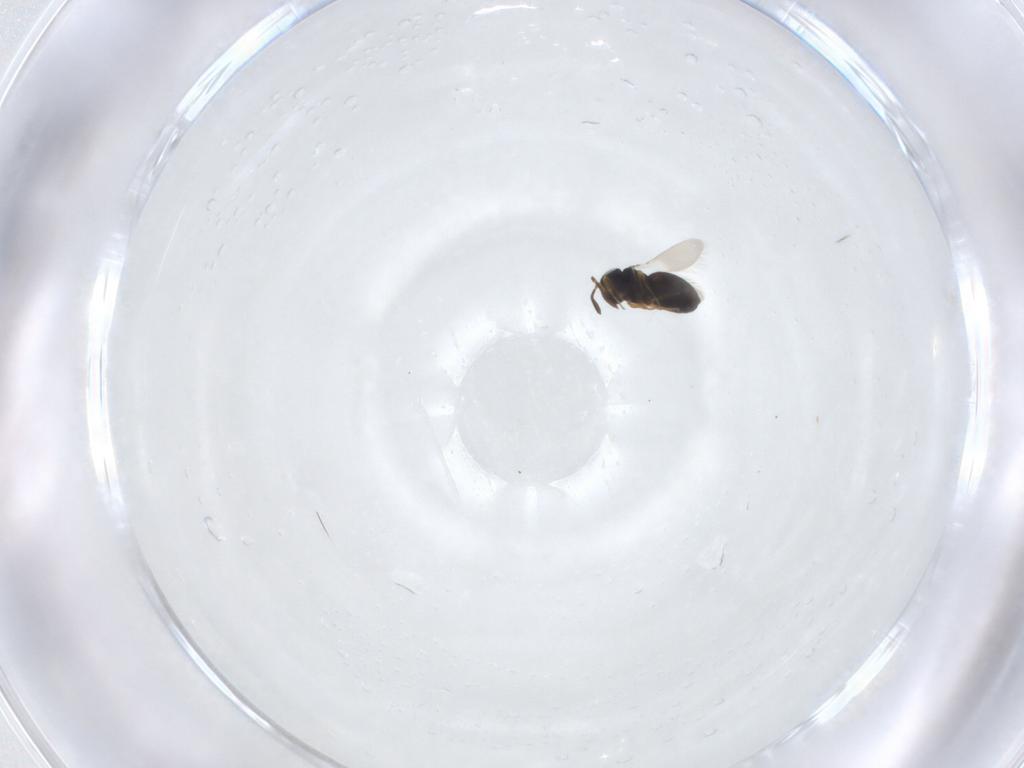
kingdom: Animalia
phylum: Arthropoda
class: Insecta
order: Hymenoptera
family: Scelionidae
